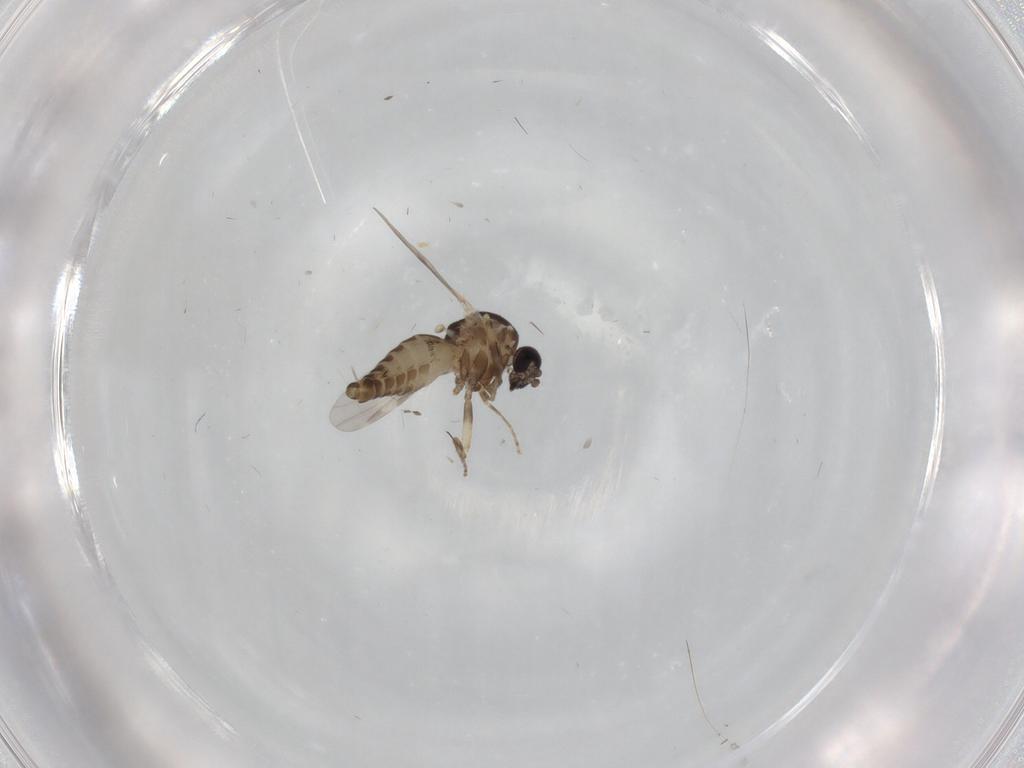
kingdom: Animalia
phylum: Arthropoda
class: Insecta
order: Diptera
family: Ceratopogonidae
